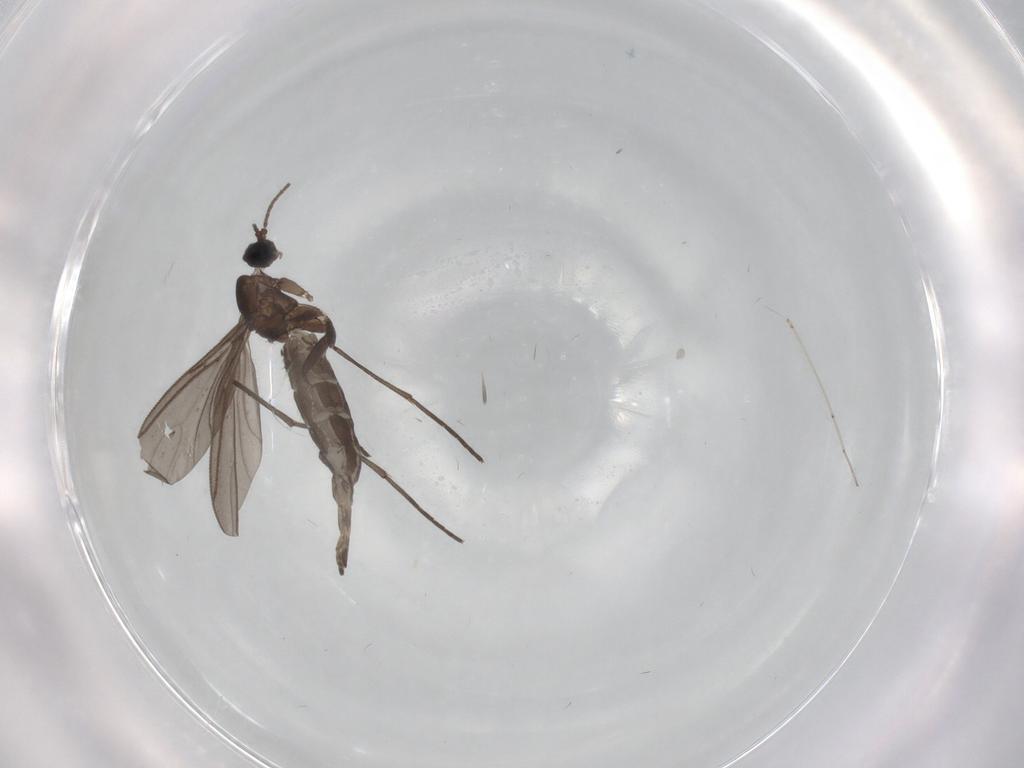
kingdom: Animalia
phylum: Arthropoda
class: Insecta
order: Diptera
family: Sciaridae
